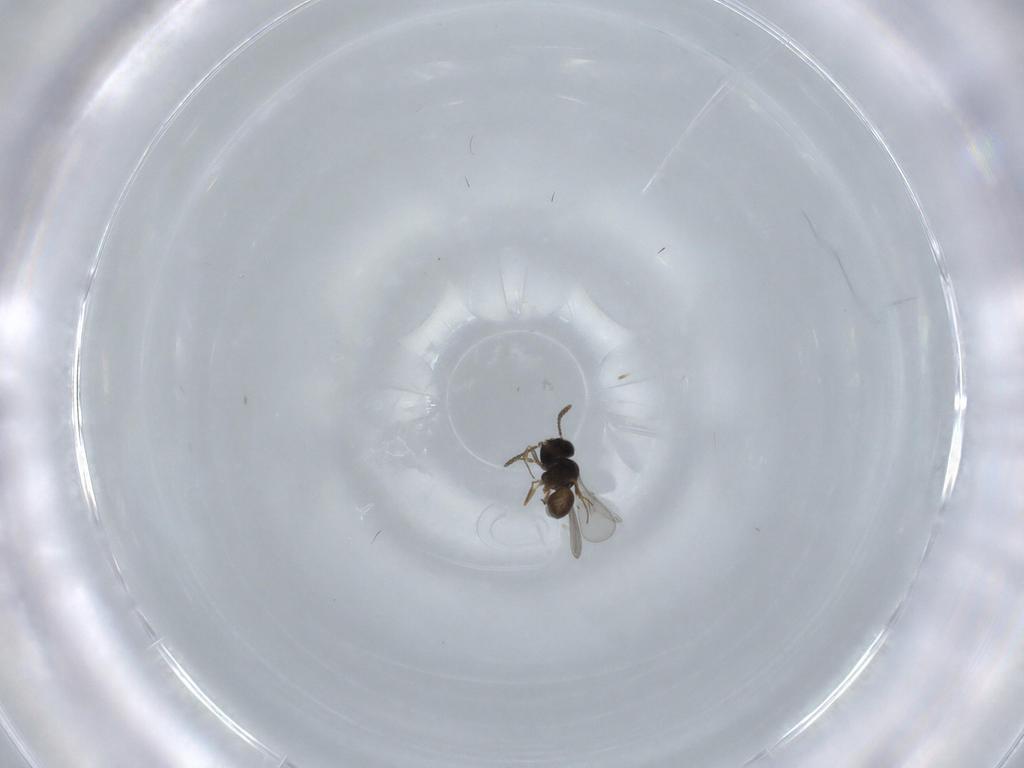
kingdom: Animalia
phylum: Arthropoda
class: Insecta
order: Hymenoptera
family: Scelionidae
